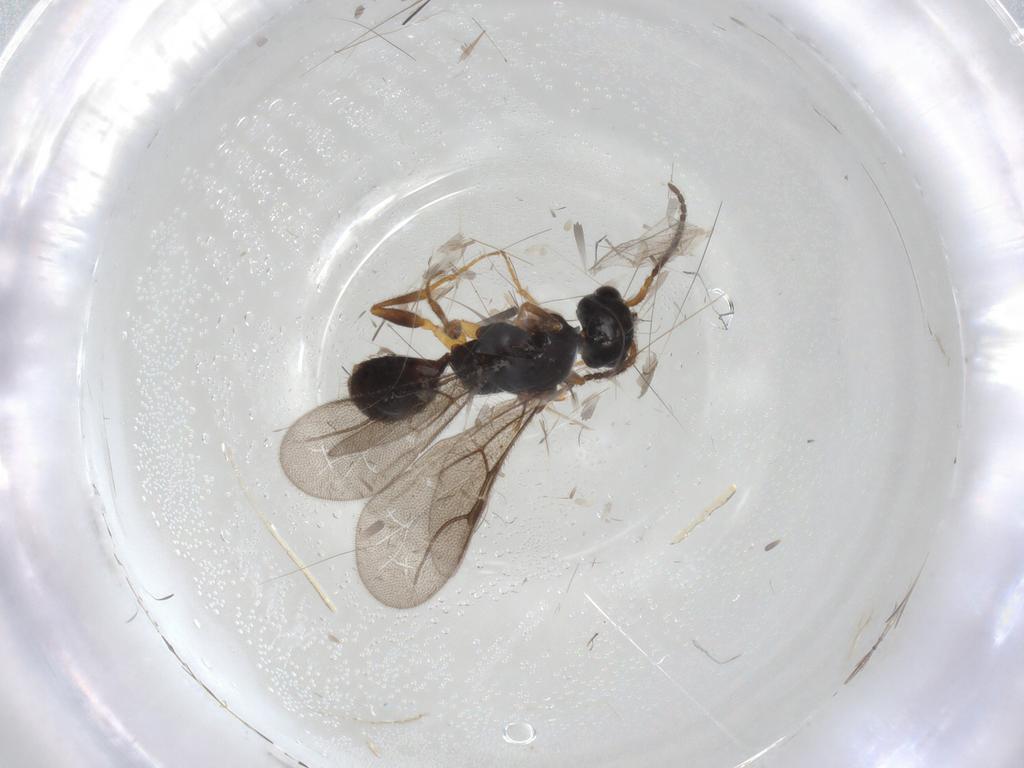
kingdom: Animalia
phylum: Arthropoda
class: Insecta
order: Hymenoptera
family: Bethylidae
